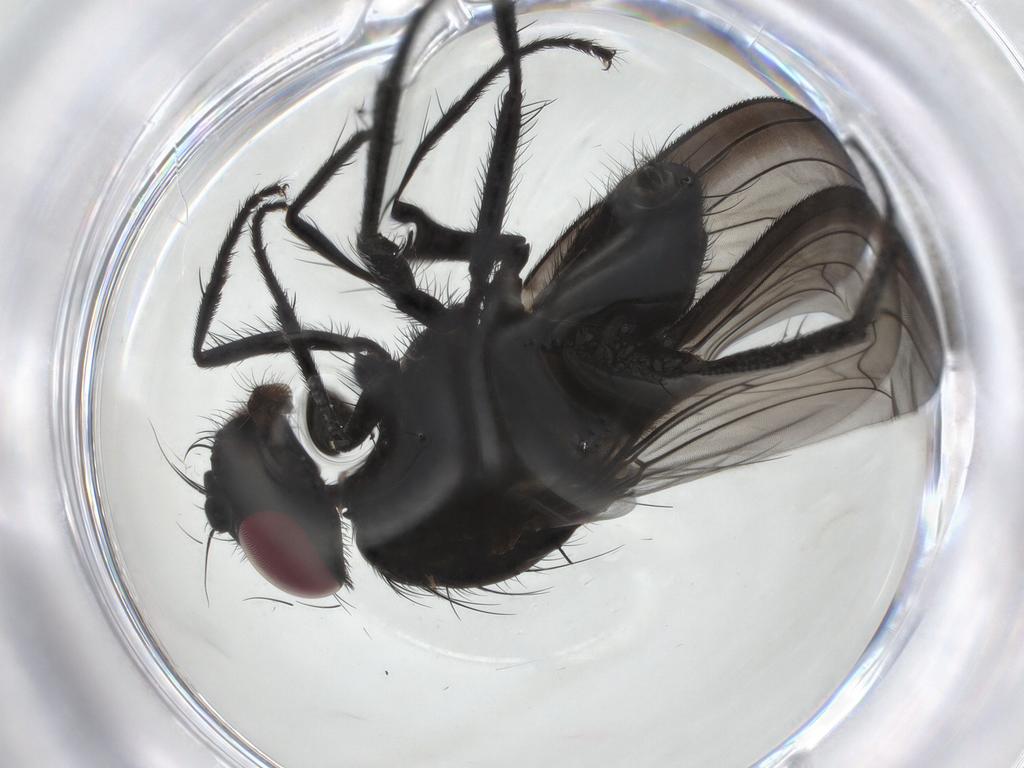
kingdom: Animalia
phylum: Arthropoda
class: Insecta
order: Diptera
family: Fannia
